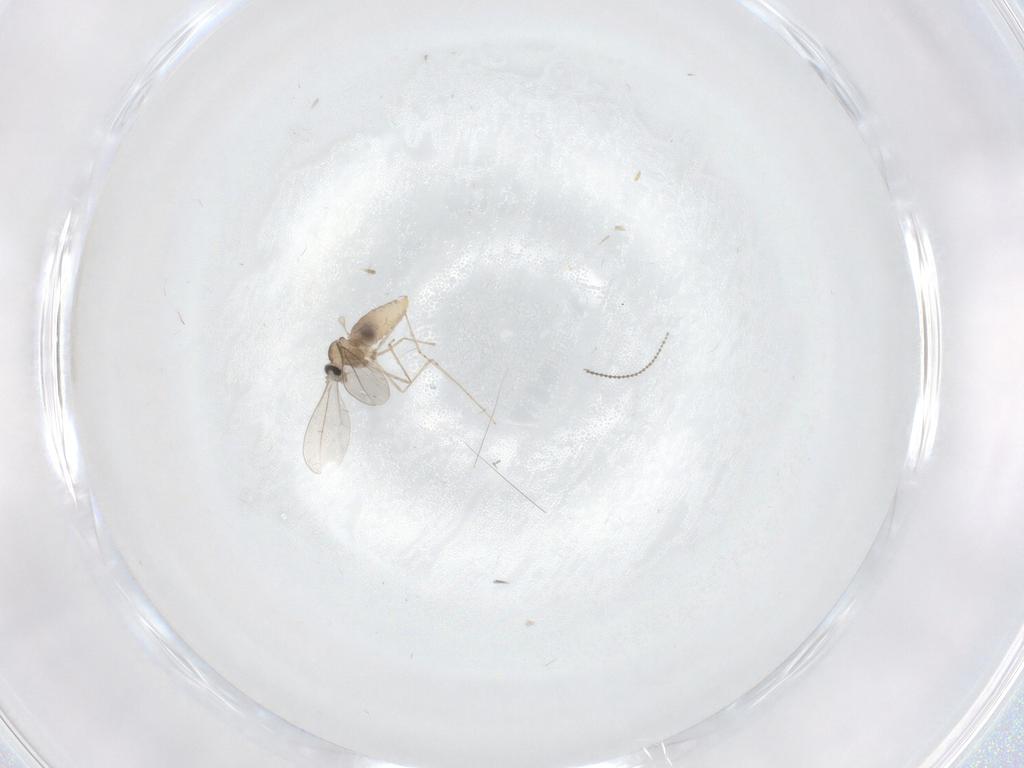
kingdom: Animalia
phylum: Arthropoda
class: Insecta
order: Diptera
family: Cecidomyiidae
